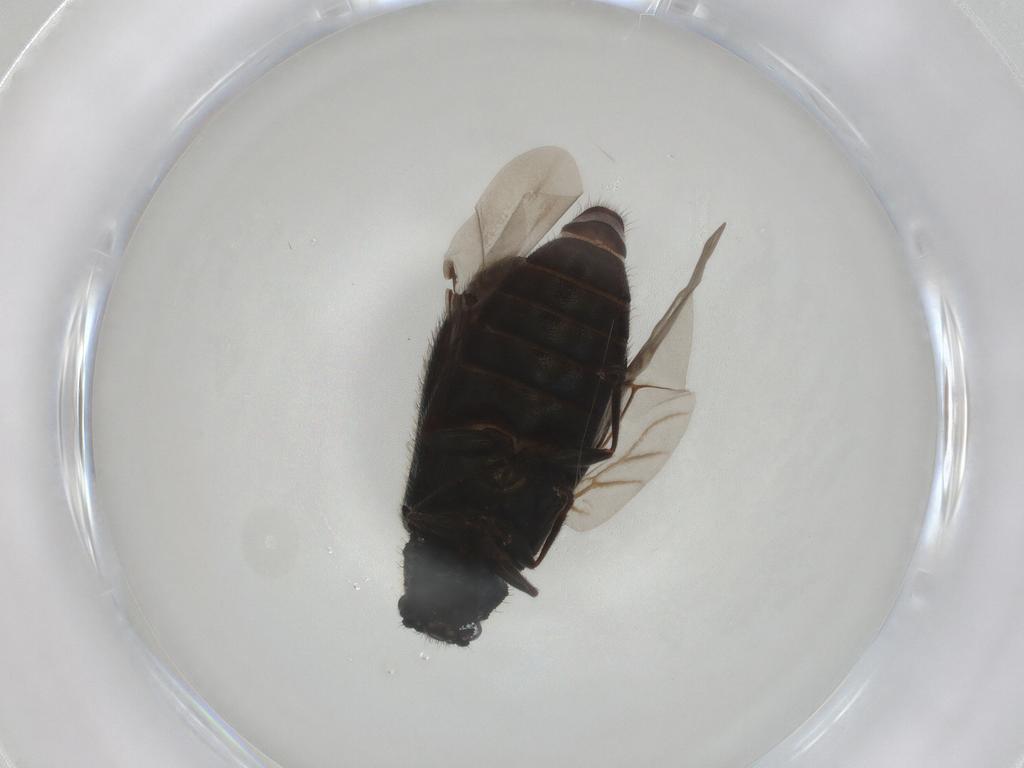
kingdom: Animalia
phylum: Arthropoda
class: Insecta
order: Coleoptera
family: Melyridae
